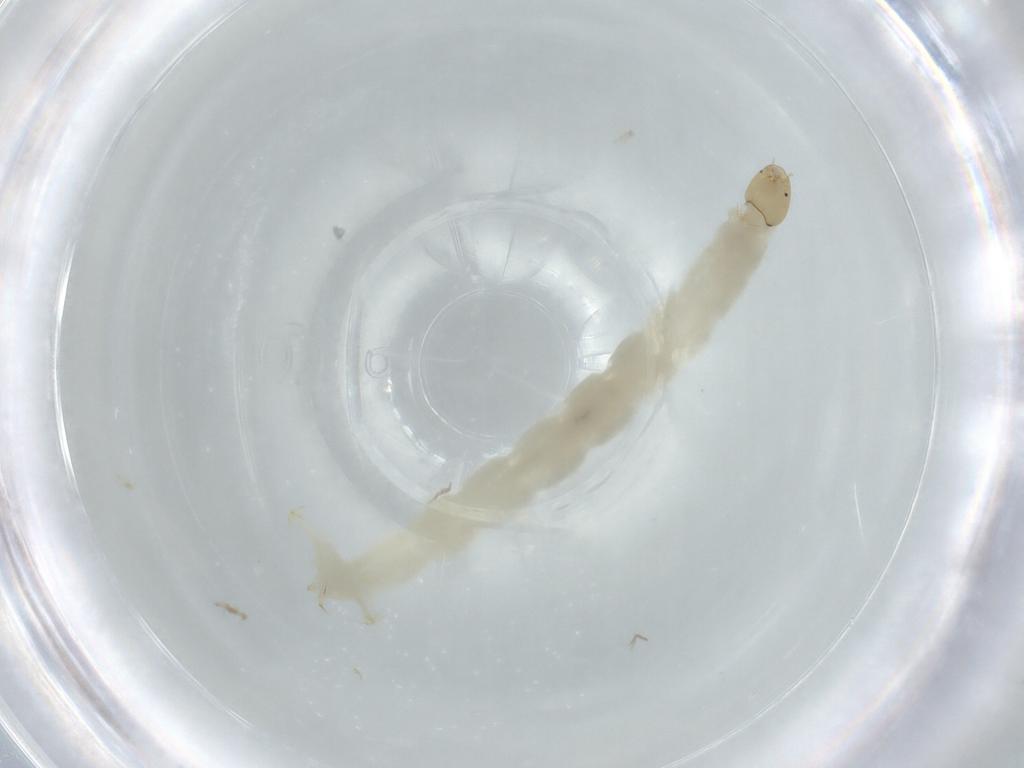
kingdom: Animalia
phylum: Arthropoda
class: Insecta
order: Diptera
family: Chironomidae
